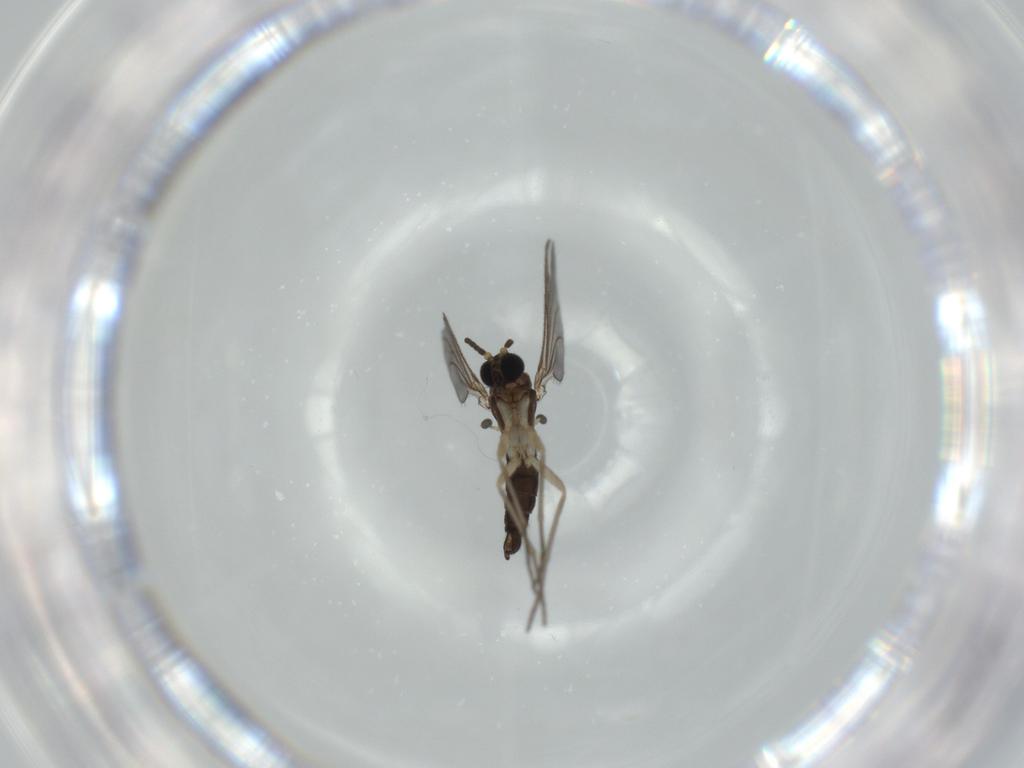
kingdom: Animalia
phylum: Arthropoda
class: Insecta
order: Diptera
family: Sciaridae
